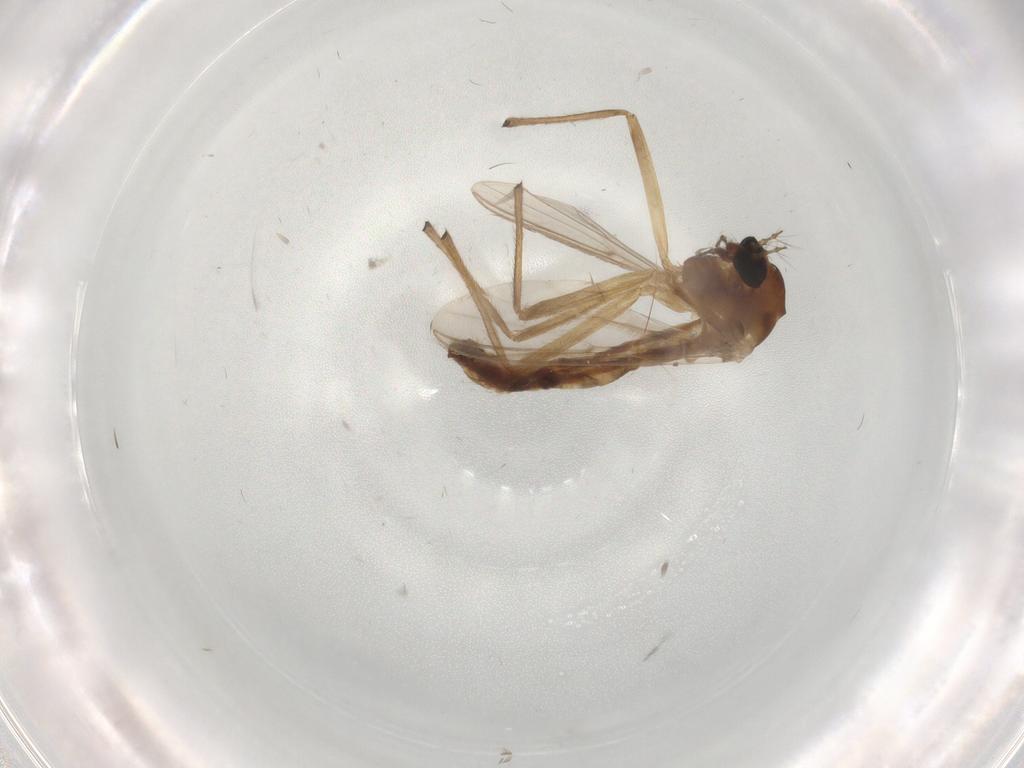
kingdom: Animalia
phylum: Arthropoda
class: Insecta
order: Diptera
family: Chironomidae
